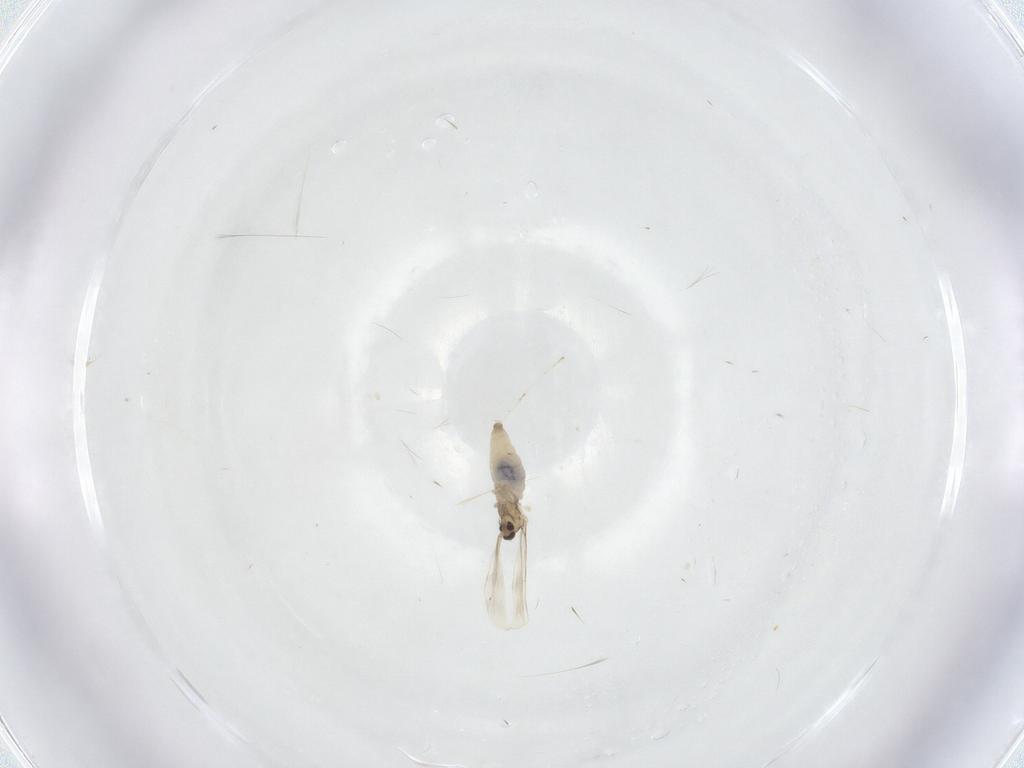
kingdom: Animalia
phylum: Arthropoda
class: Insecta
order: Diptera
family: Cecidomyiidae
